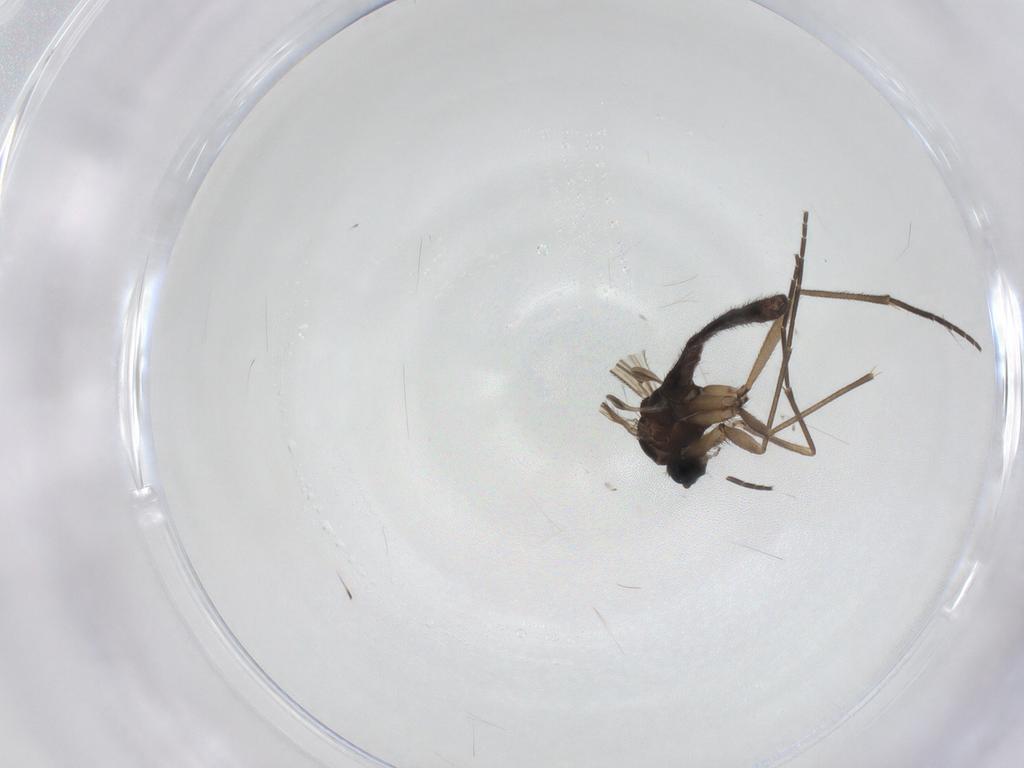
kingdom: Animalia
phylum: Arthropoda
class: Insecta
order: Diptera
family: Sciaridae
